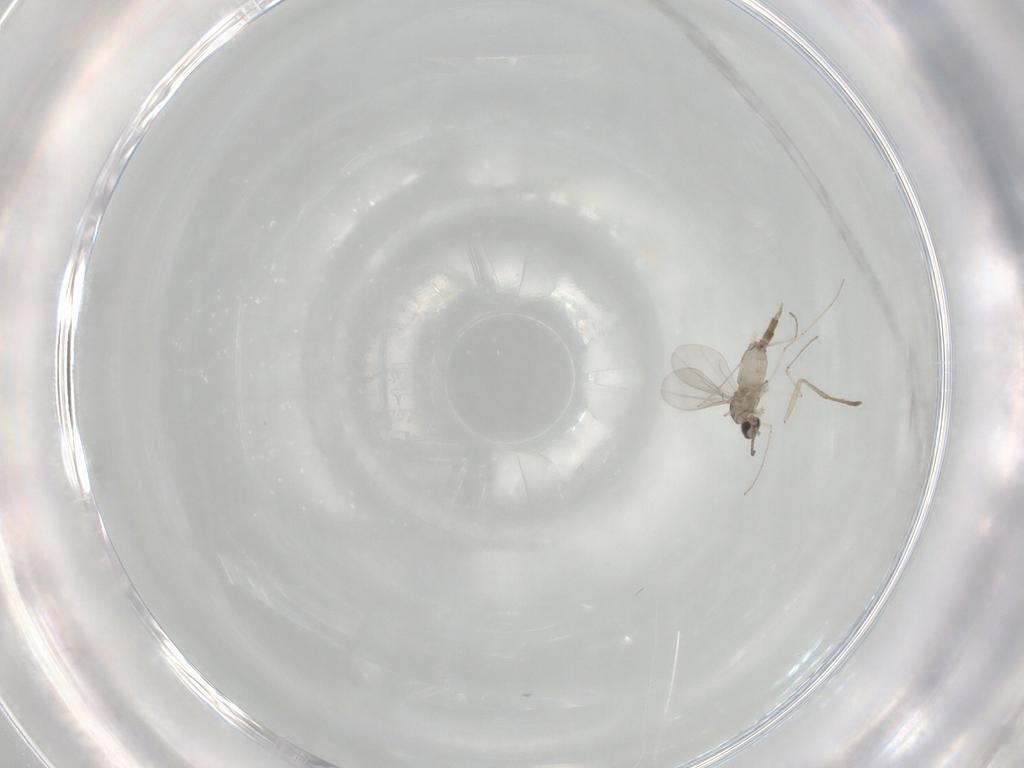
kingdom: Animalia
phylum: Arthropoda
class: Insecta
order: Diptera
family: Cecidomyiidae
